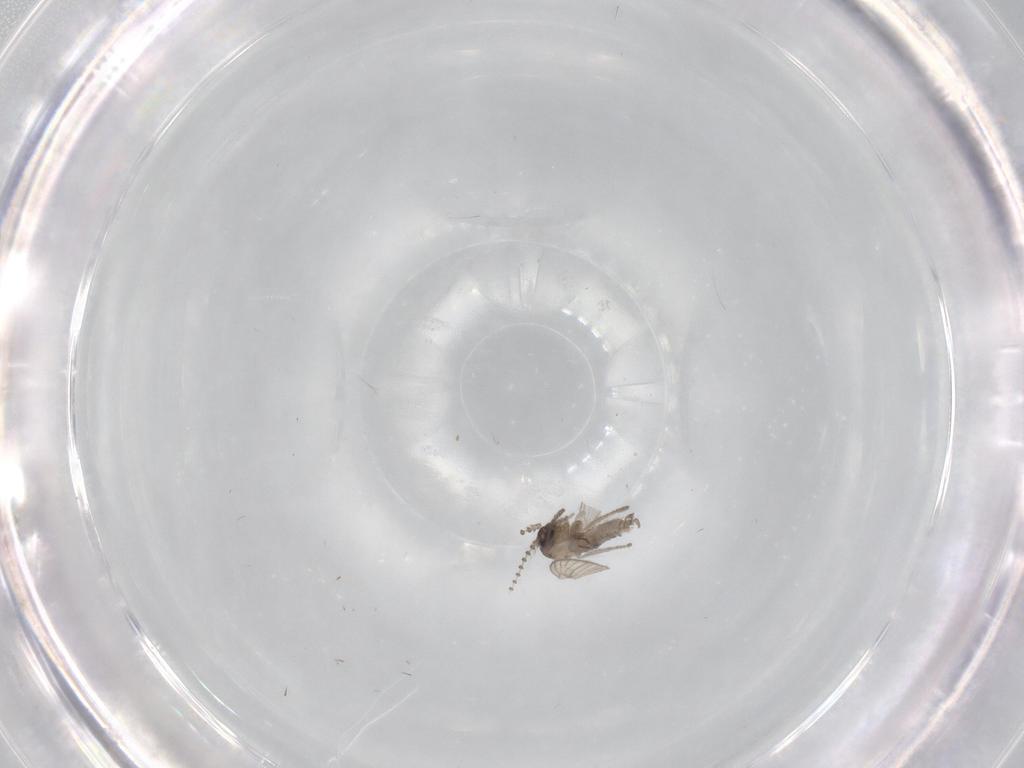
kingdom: Animalia
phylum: Arthropoda
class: Insecta
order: Diptera
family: Psychodidae
